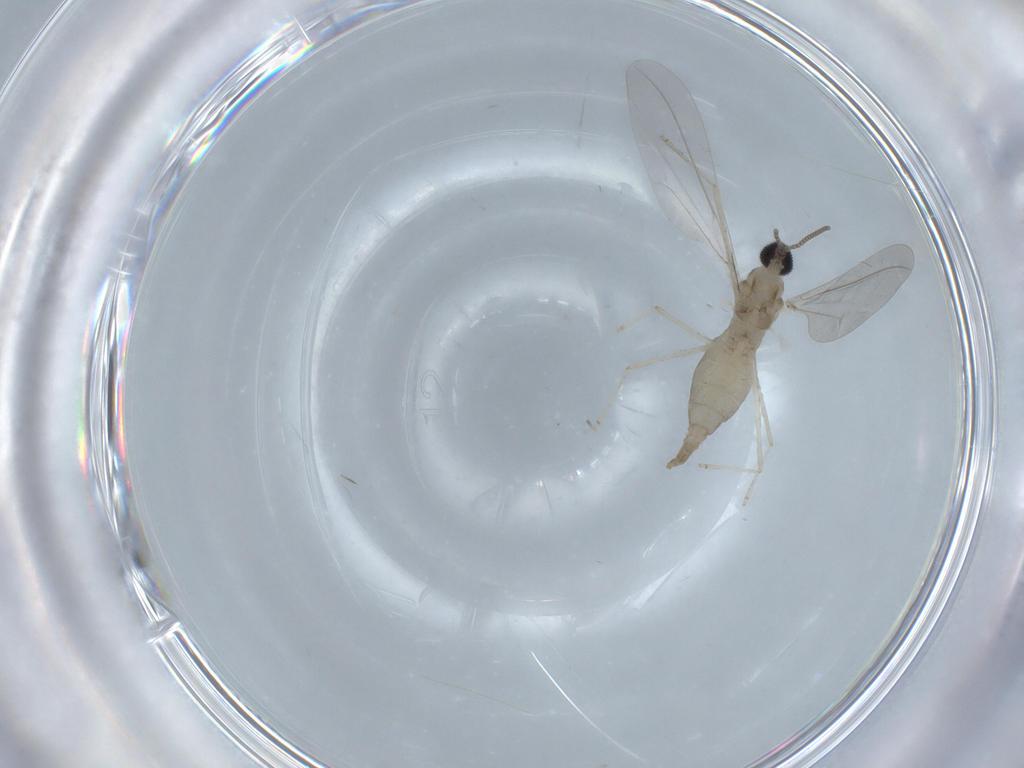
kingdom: Animalia
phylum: Arthropoda
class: Insecta
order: Diptera
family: Cecidomyiidae
